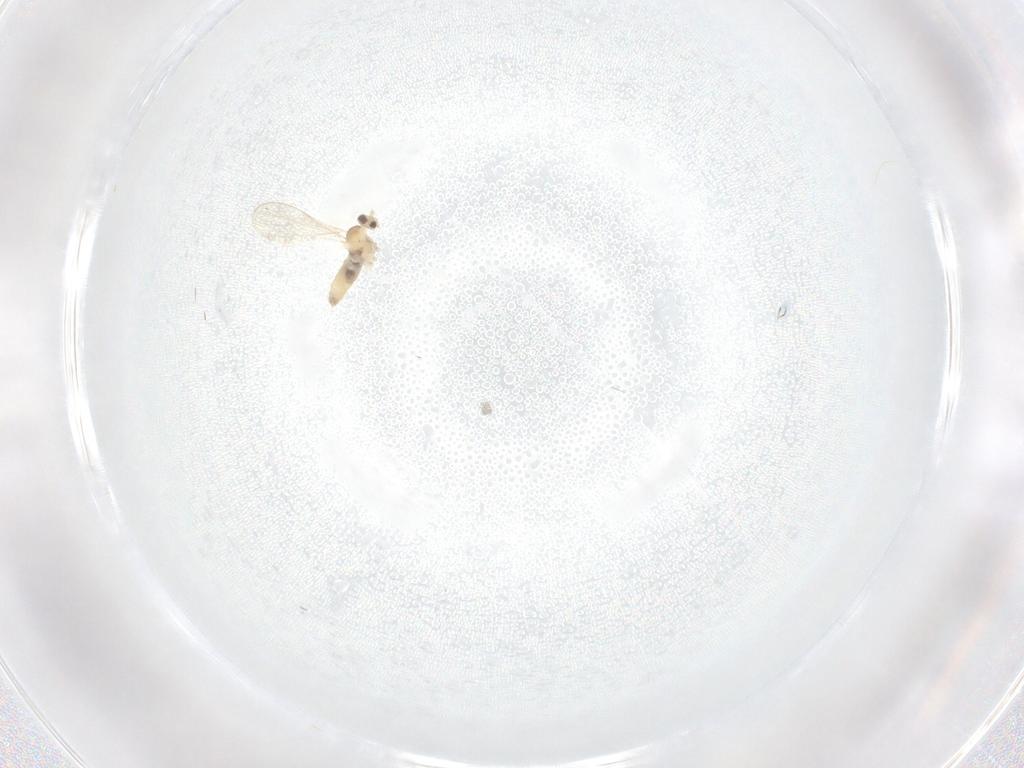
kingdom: Animalia
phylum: Arthropoda
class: Insecta
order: Diptera
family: Cecidomyiidae
